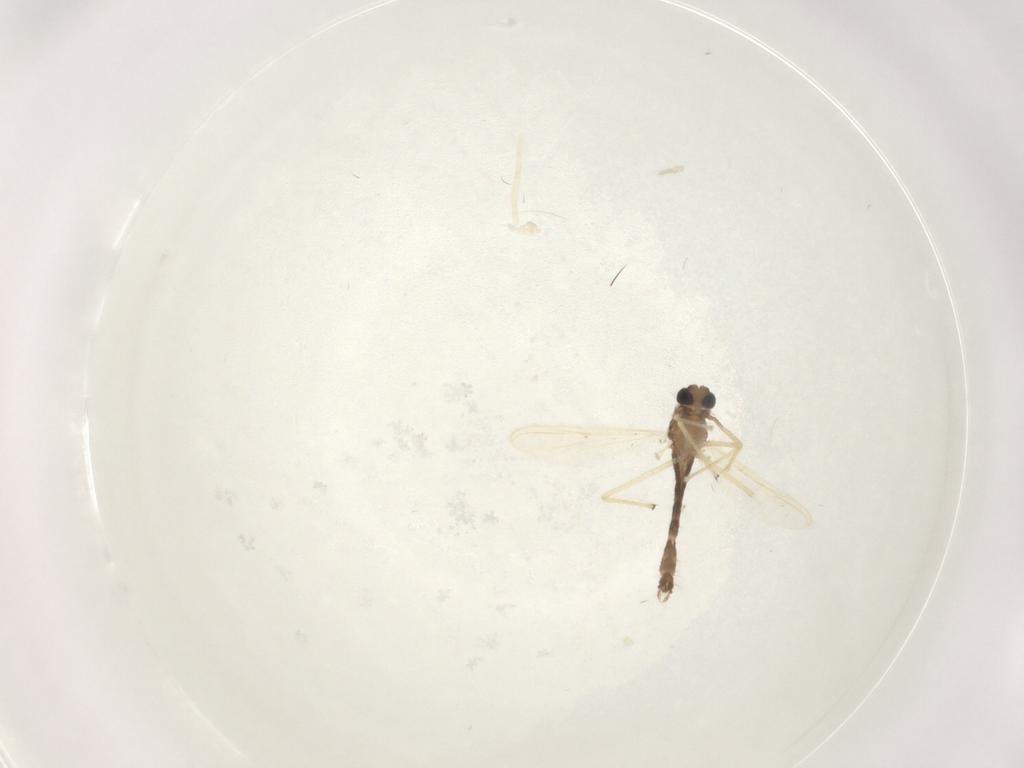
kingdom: Animalia
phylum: Arthropoda
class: Insecta
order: Diptera
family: Chironomidae
